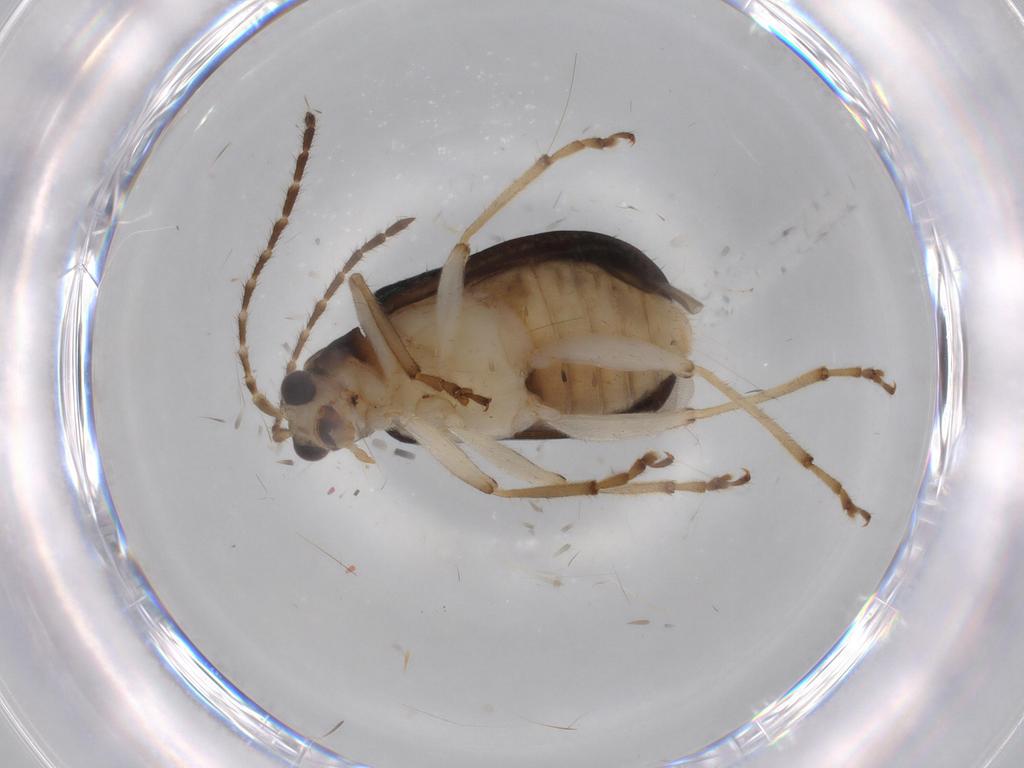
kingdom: Animalia
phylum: Arthropoda
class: Insecta
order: Coleoptera
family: Chrysomelidae
